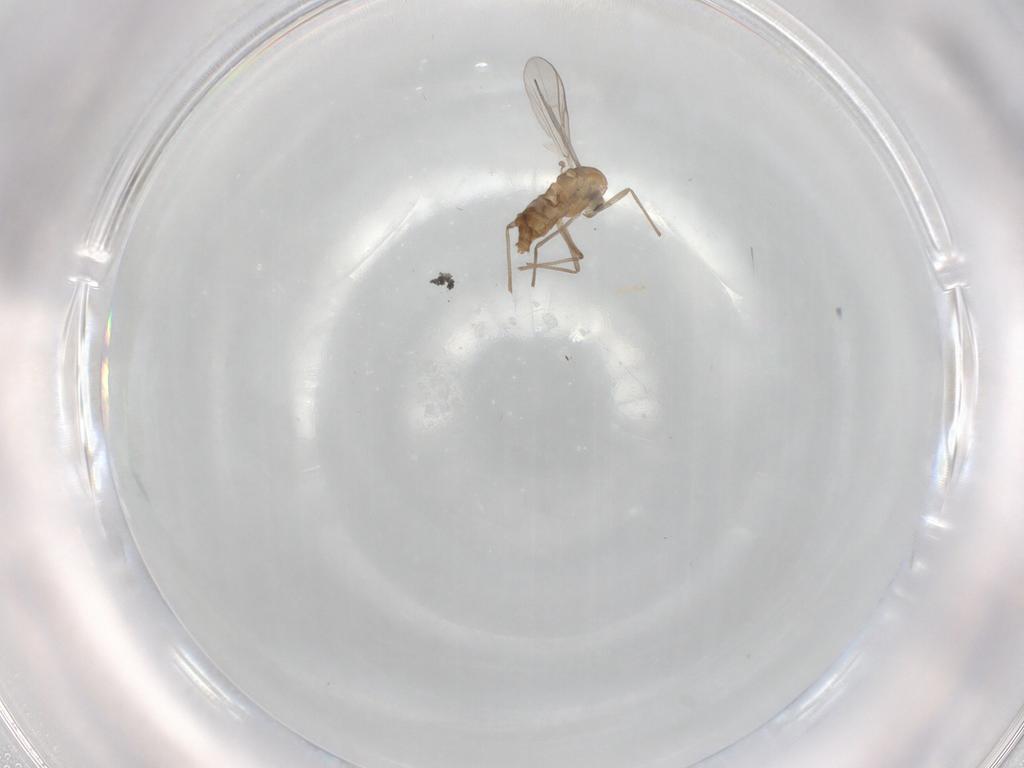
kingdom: Animalia
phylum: Arthropoda
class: Insecta
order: Diptera
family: Chironomidae
